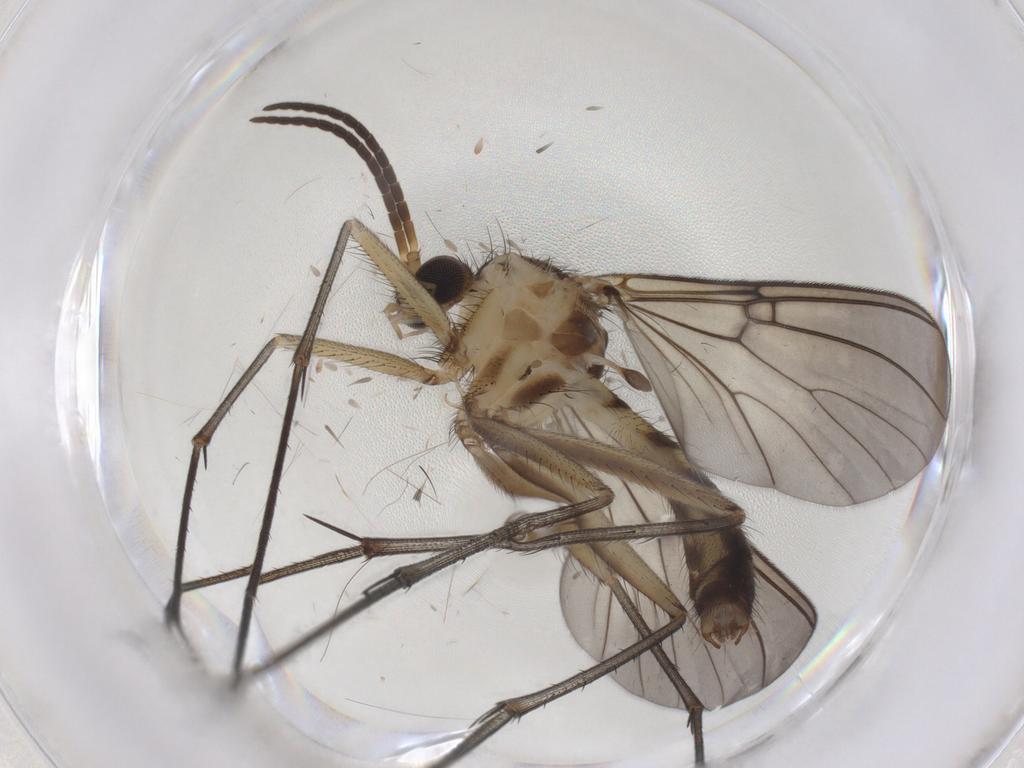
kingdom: Animalia
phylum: Arthropoda
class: Insecta
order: Diptera
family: Mycetophilidae
